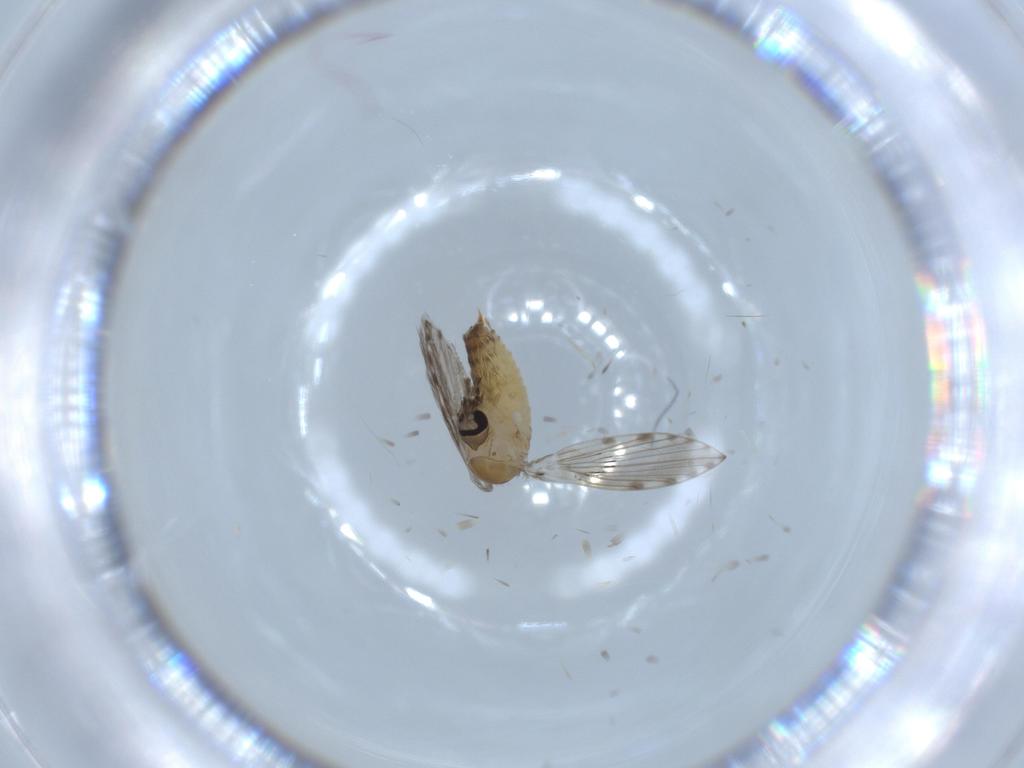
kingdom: Animalia
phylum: Arthropoda
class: Insecta
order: Diptera
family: Psychodidae
